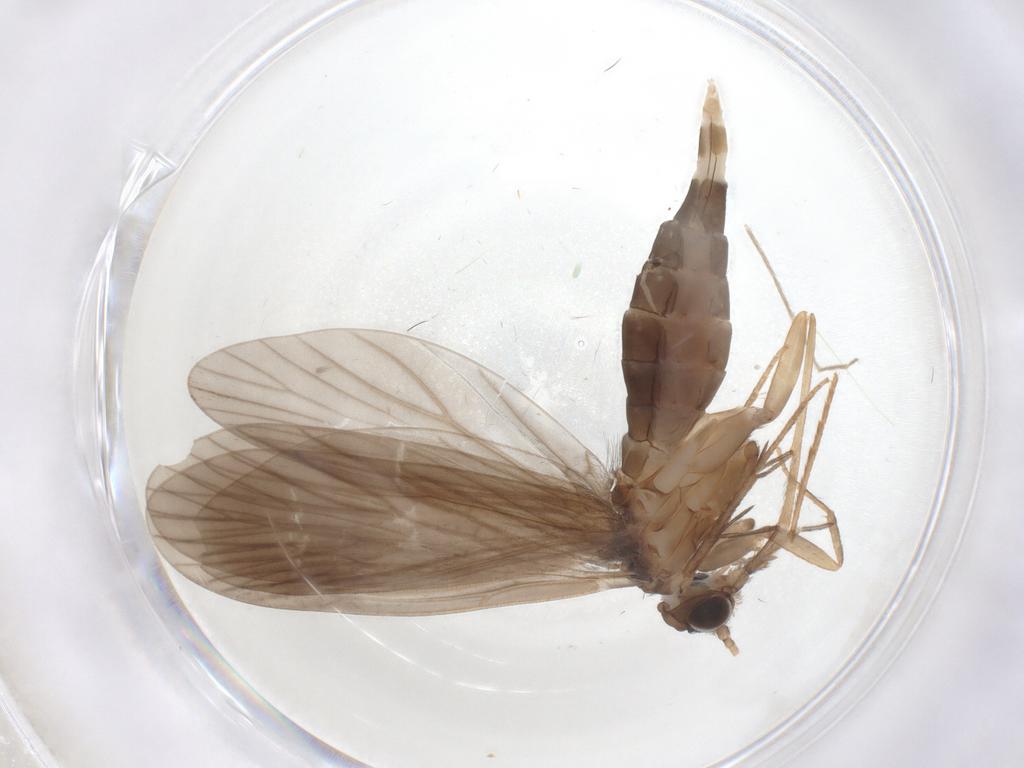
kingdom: Animalia
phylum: Arthropoda
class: Insecta
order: Trichoptera
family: Philopotamidae
